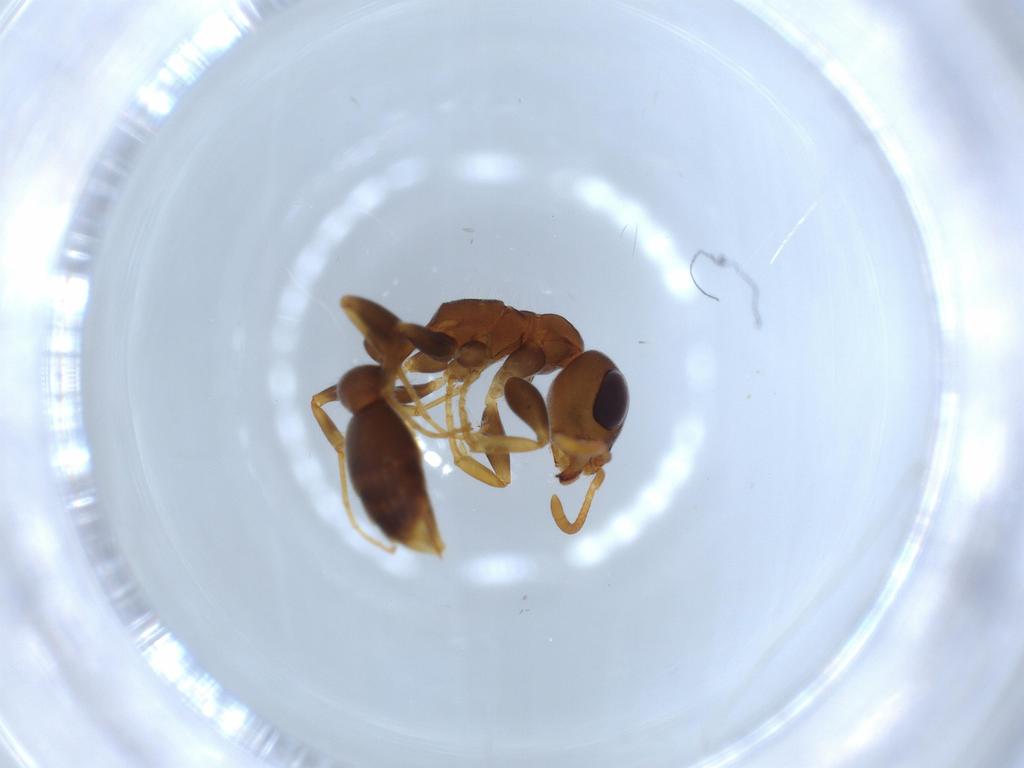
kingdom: Animalia
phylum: Arthropoda
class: Insecta
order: Hymenoptera
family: Formicidae
